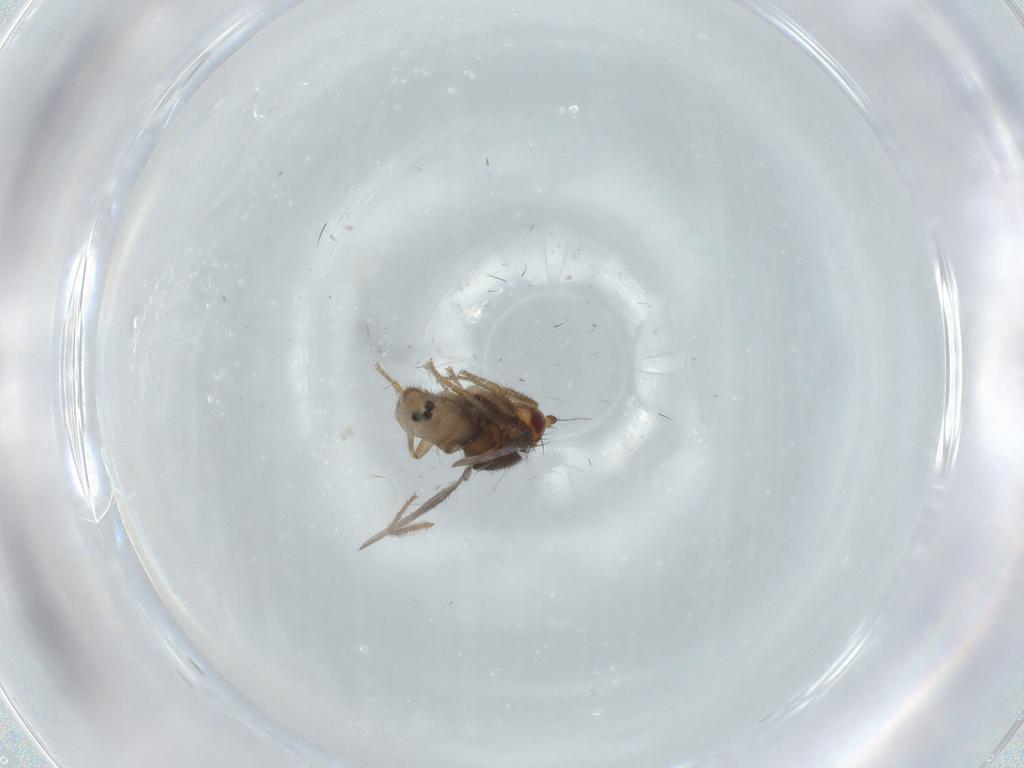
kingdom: Animalia
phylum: Arthropoda
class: Insecta
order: Diptera
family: Sphaeroceridae
